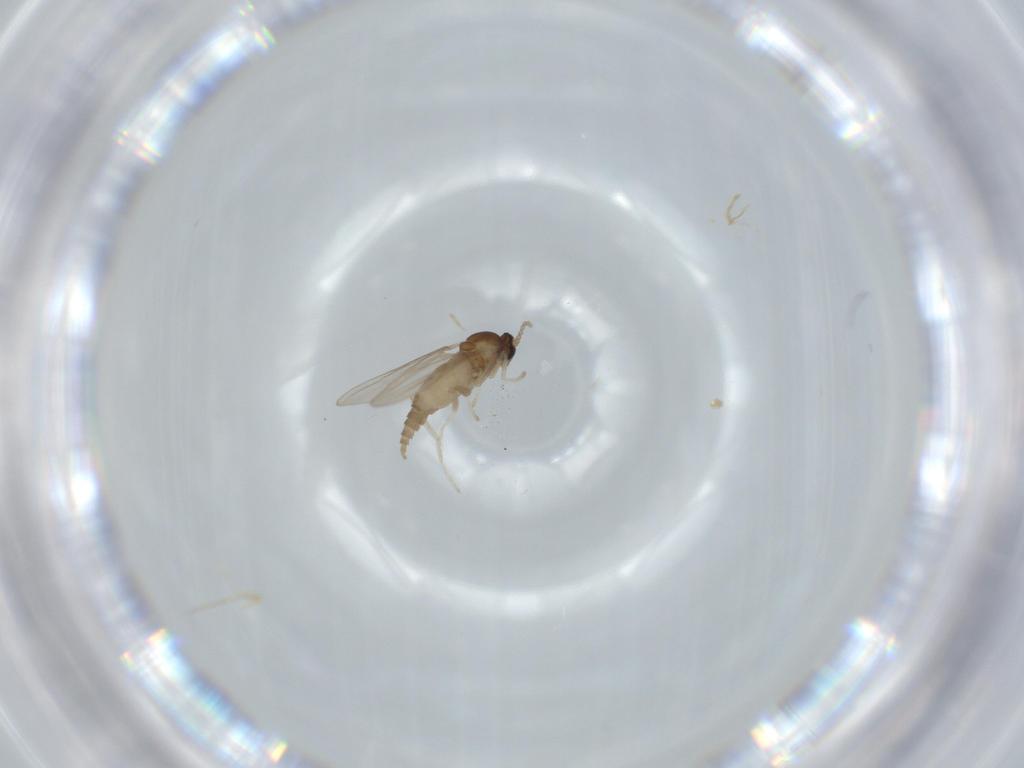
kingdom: Animalia
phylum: Arthropoda
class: Insecta
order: Diptera
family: Cecidomyiidae
